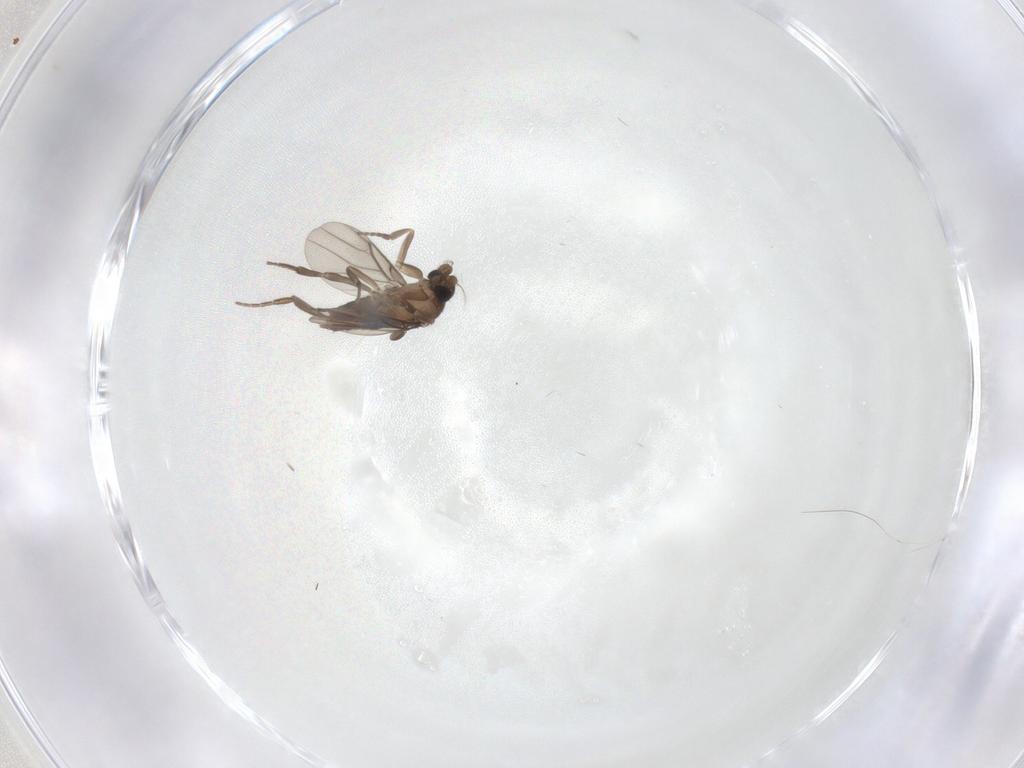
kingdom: Animalia
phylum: Arthropoda
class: Insecta
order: Diptera
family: Phoridae
